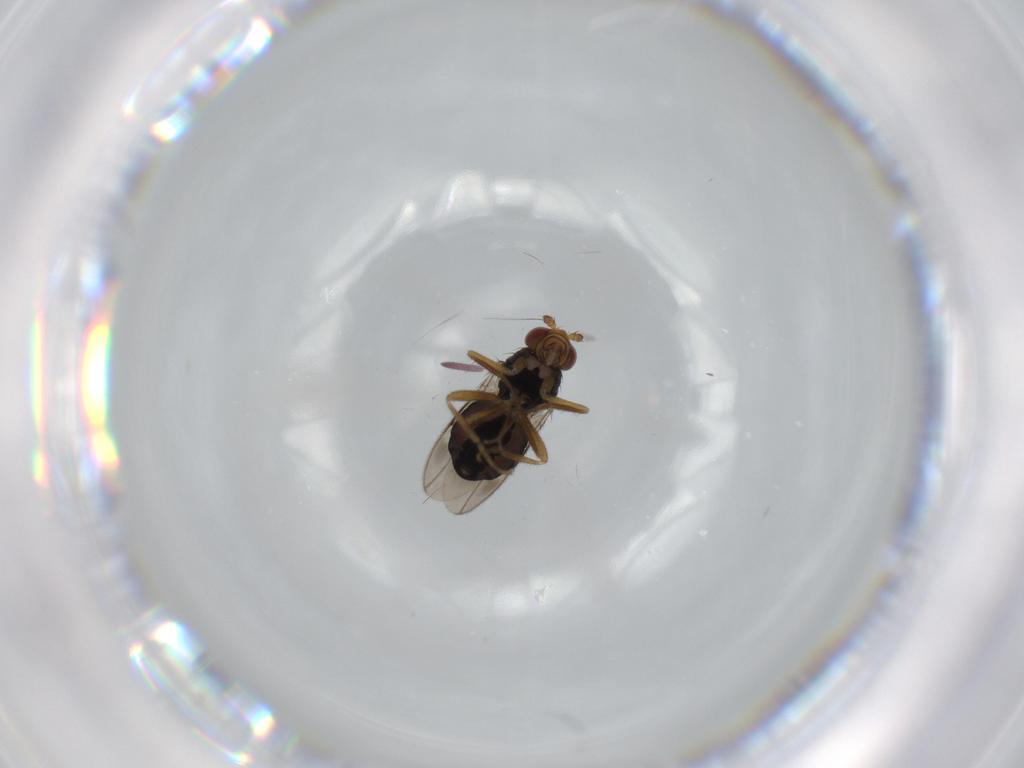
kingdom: Animalia
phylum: Arthropoda
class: Insecta
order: Diptera
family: Sphaeroceridae
